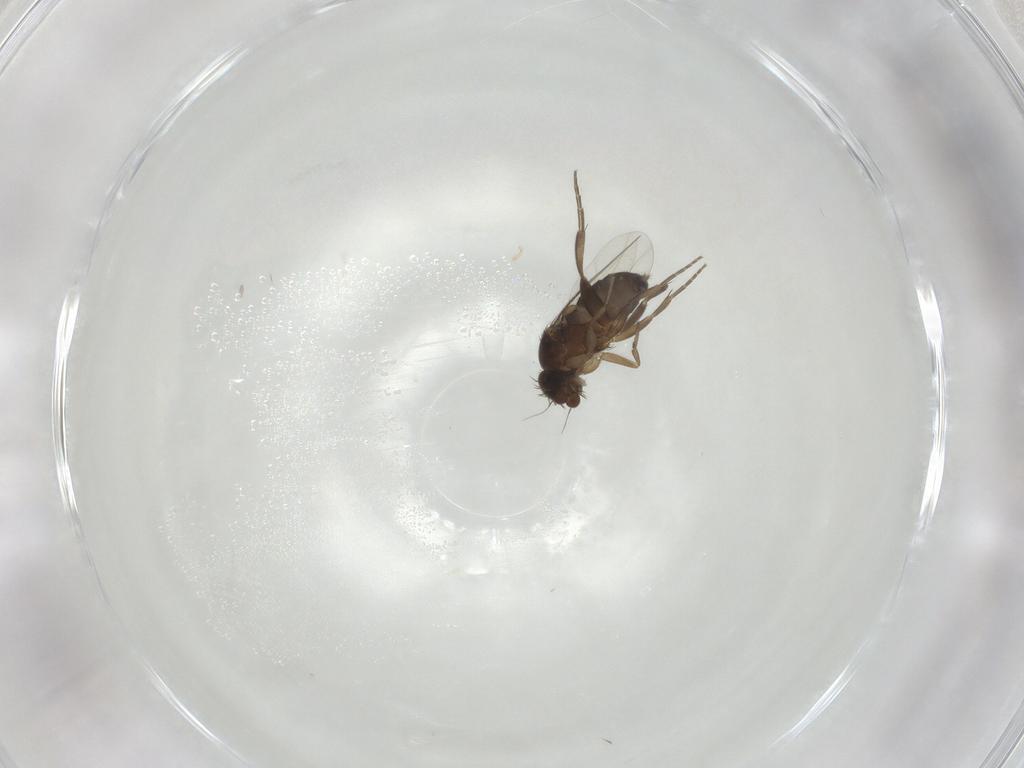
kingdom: Animalia
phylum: Arthropoda
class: Insecta
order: Diptera
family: Phoridae
